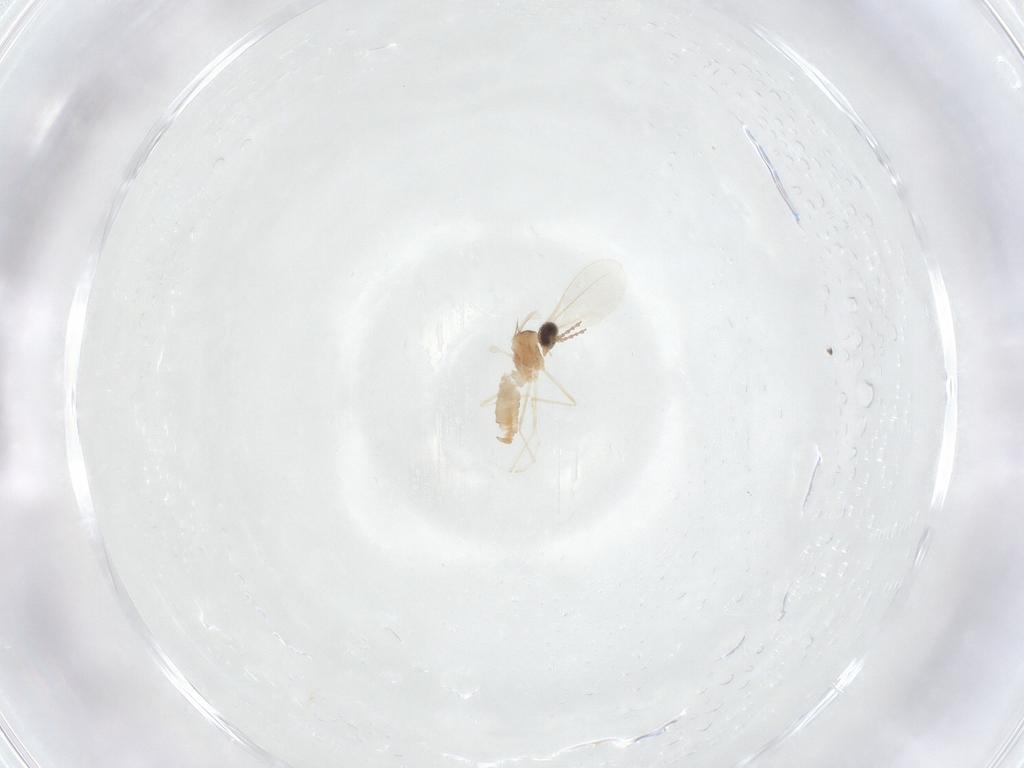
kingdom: Animalia
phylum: Arthropoda
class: Insecta
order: Diptera
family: Cecidomyiidae
